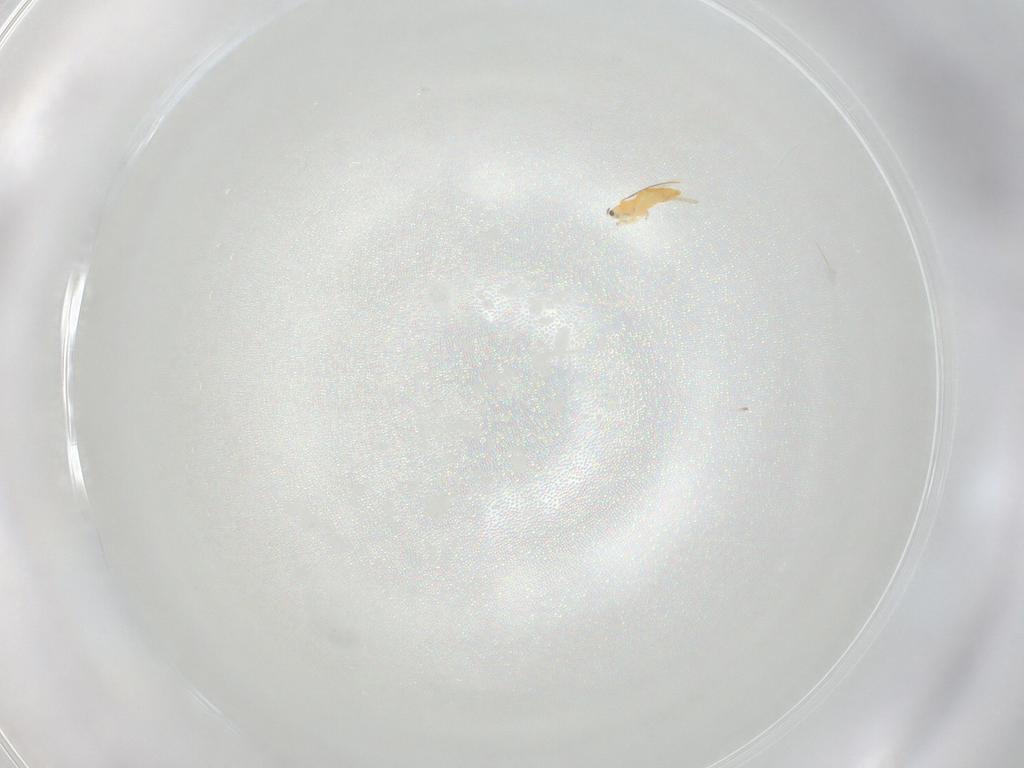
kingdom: Animalia
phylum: Arthropoda
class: Insecta
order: Thysanoptera
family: Thripidae
